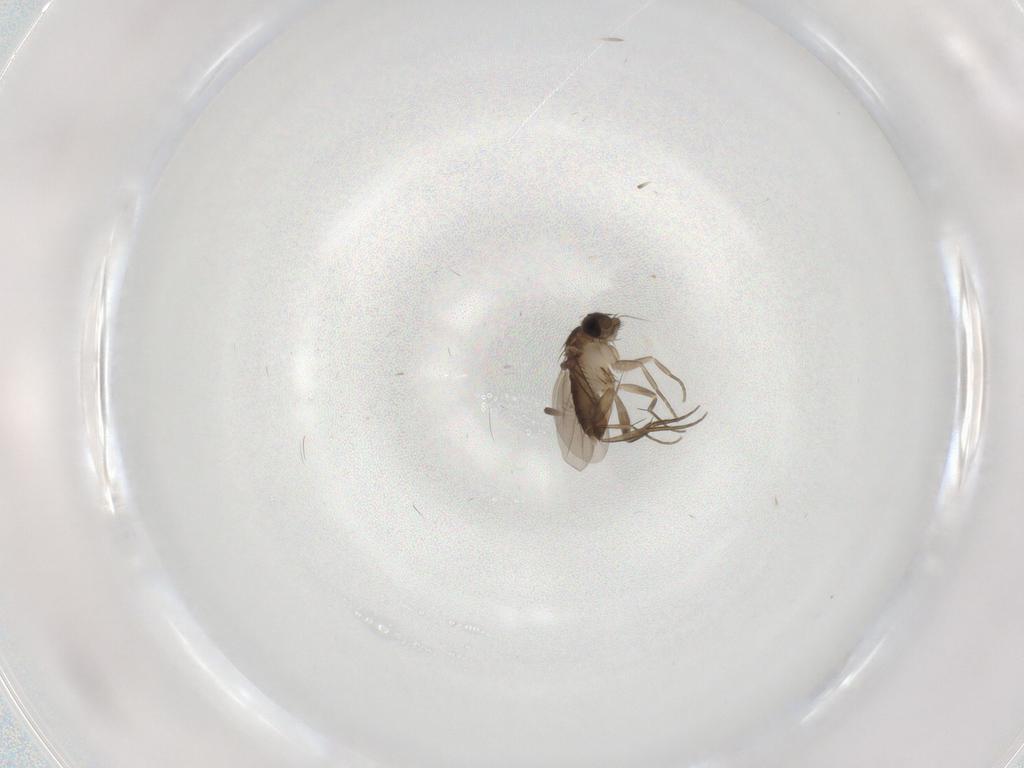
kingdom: Animalia
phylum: Arthropoda
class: Insecta
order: Diptera
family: Phoridae
